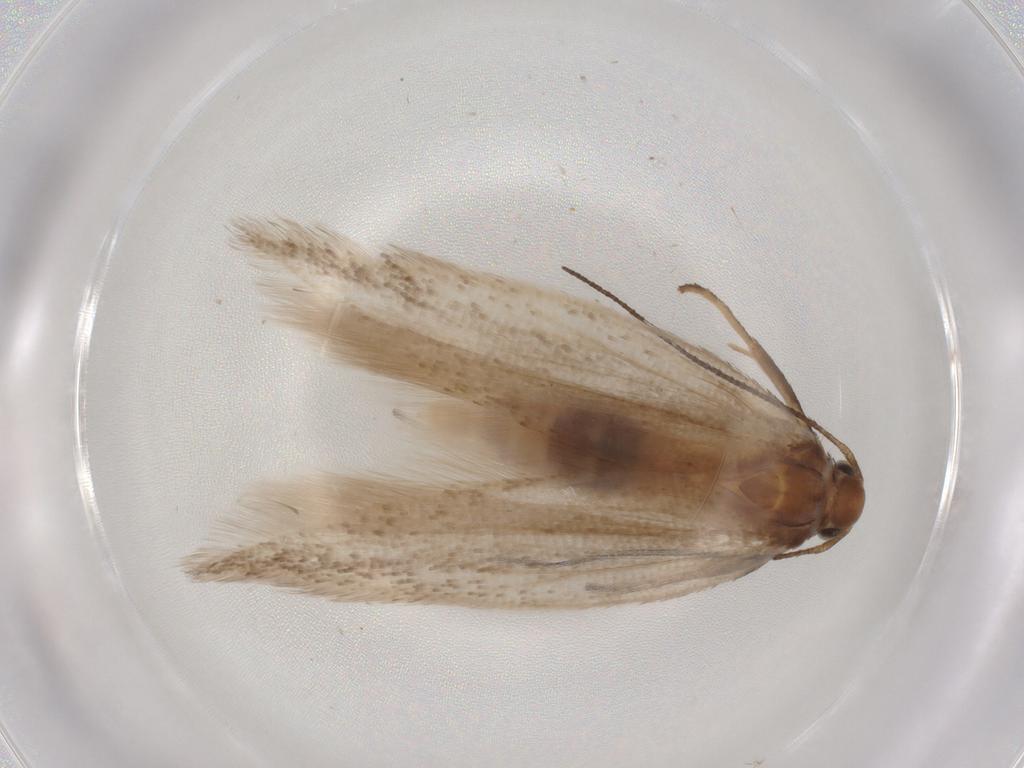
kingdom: Animalia
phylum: Arthropoda
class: Insecta
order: Lepidoptera
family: Gelechiidae
